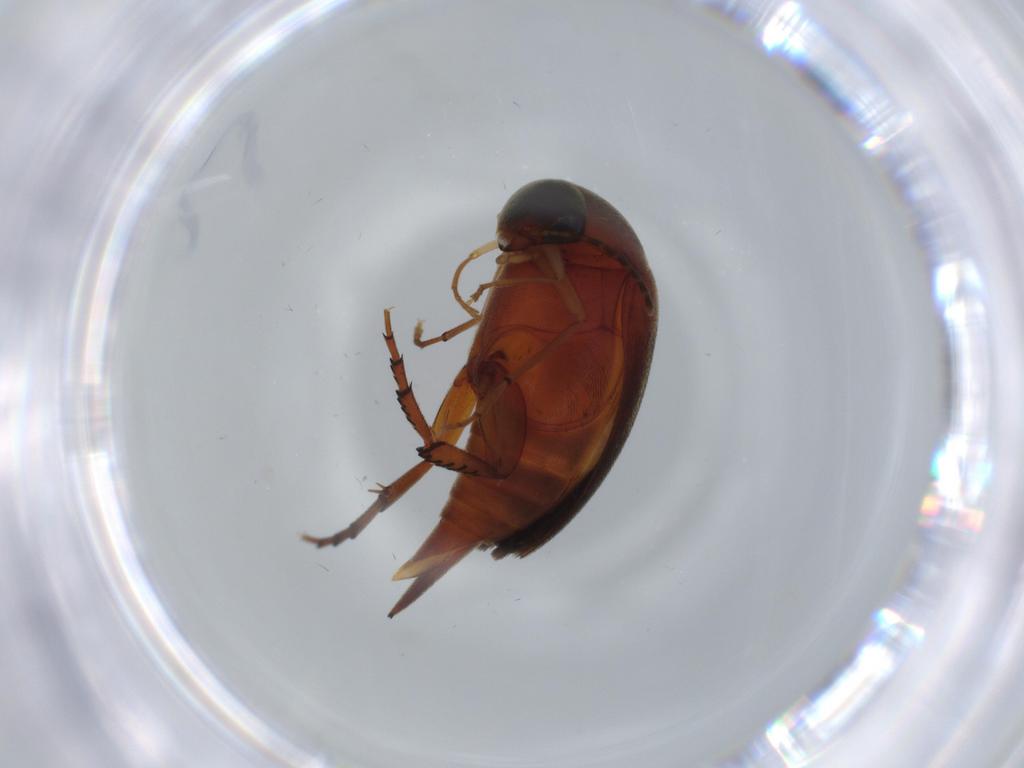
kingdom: Animalia
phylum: Arthropoda
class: Insecta
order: Coleoptera
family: Mordellidae
